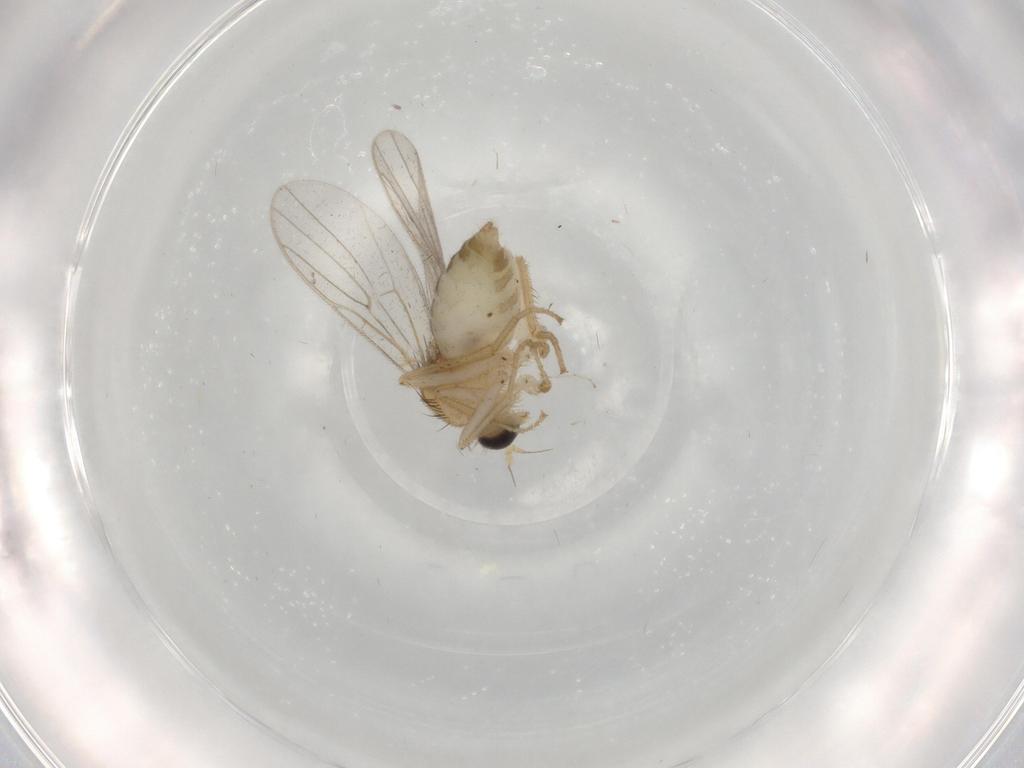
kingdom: Animalia
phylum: Arthropoda
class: Insecta
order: Diptera
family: Hybotidae
